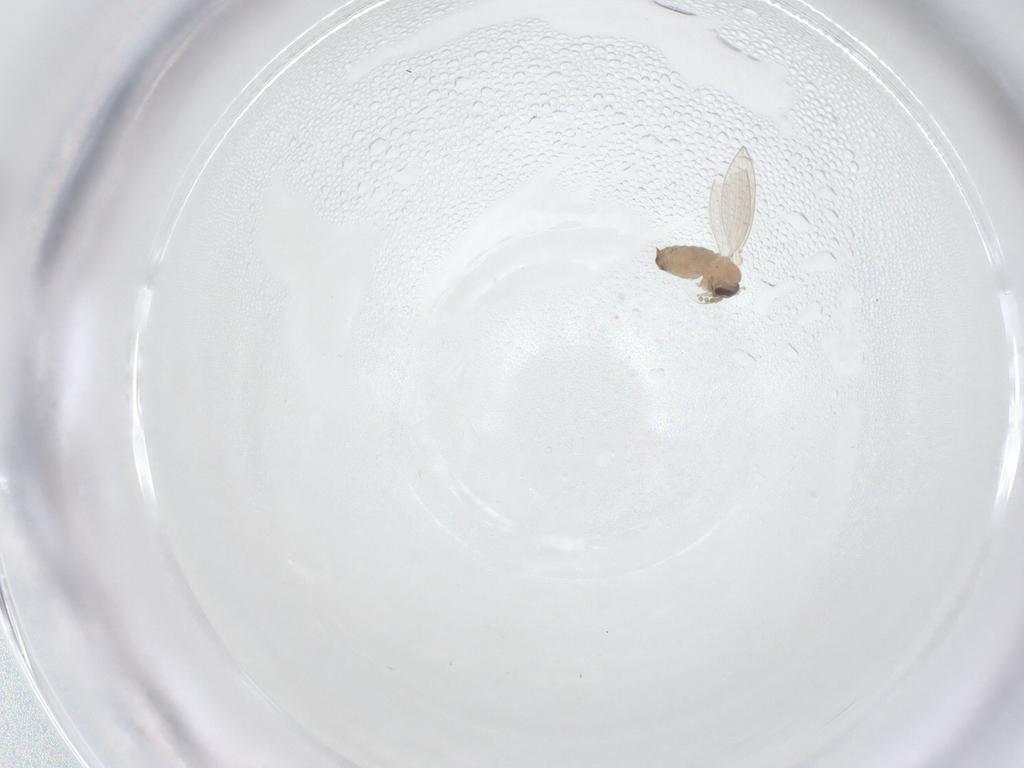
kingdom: Animalia
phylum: Arthropoda
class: Insecta
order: Diptera
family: Psychodidae
